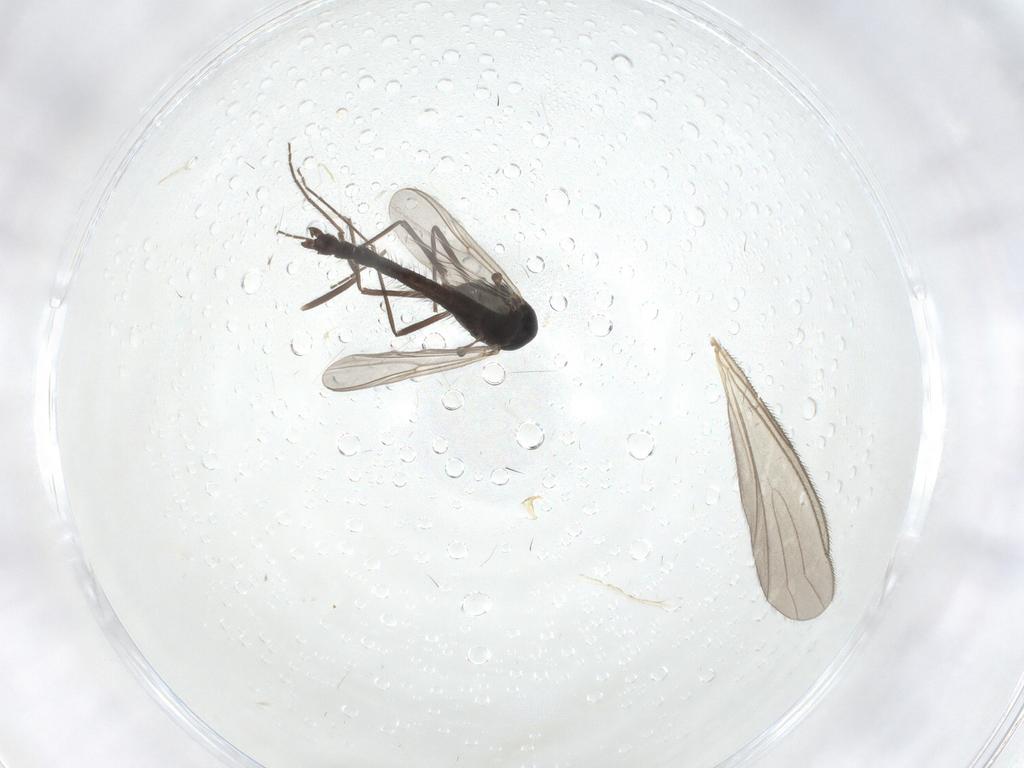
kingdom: Animalia
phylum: Arthropoda
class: Insecta
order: Diptera
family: Chironomidae
